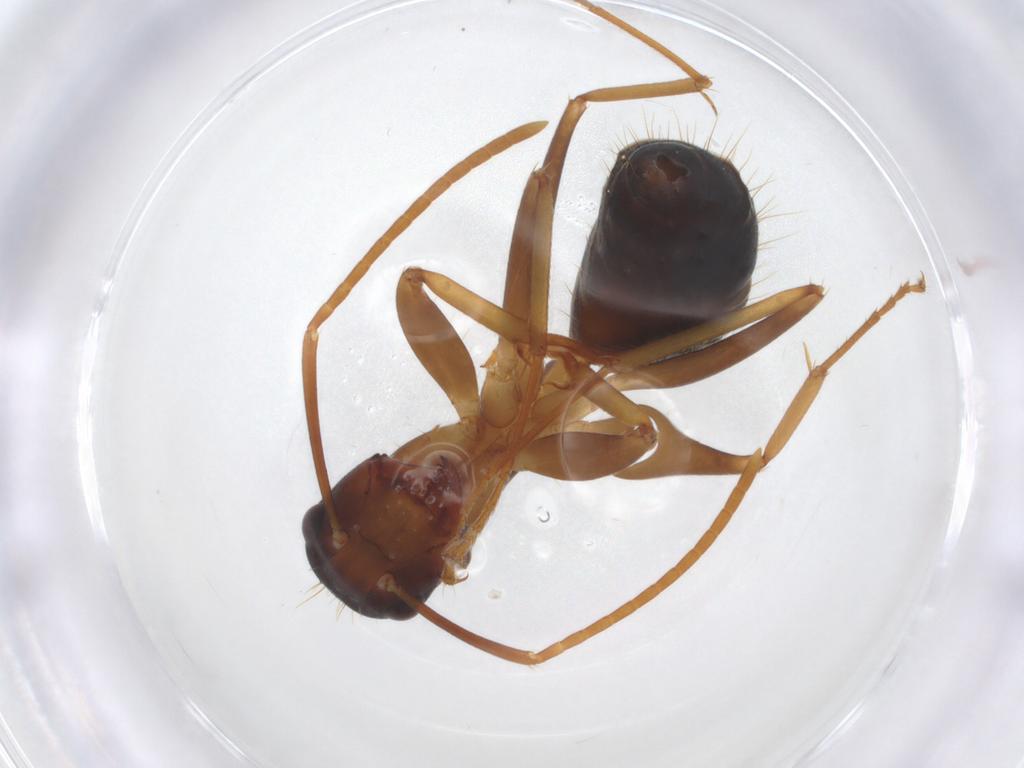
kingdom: Animalia
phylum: Arthropoda
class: Insecta
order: Hymenoptera
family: Formicidae
